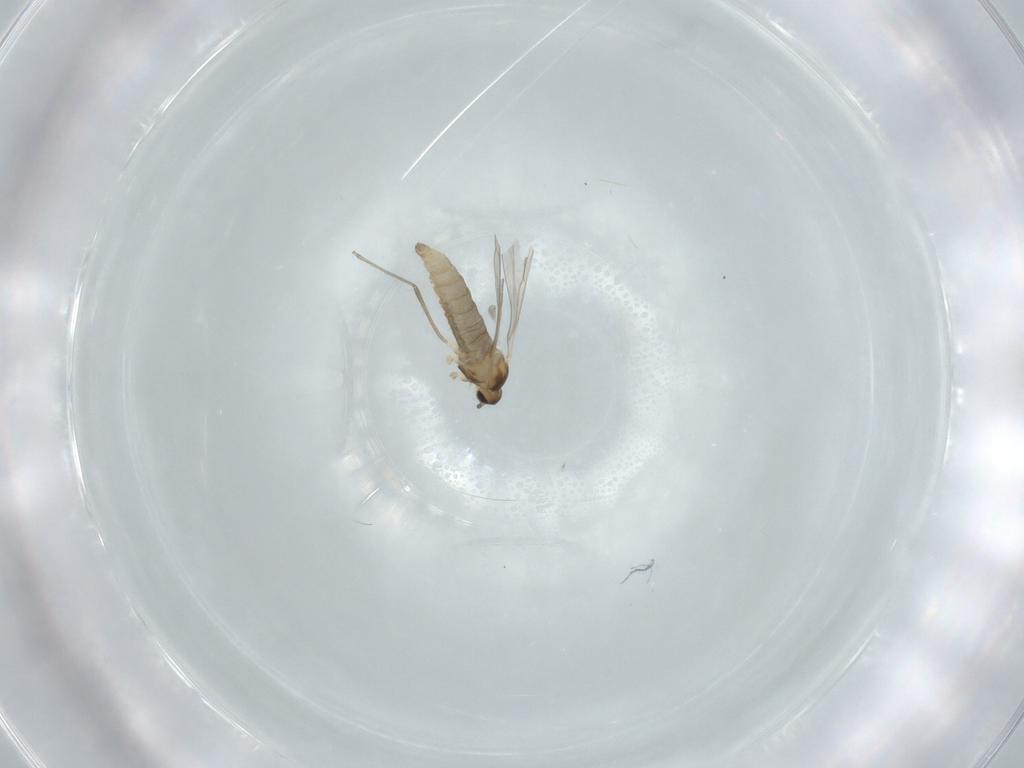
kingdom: Animalia
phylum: Arthropoda
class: Insecta
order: Diptera
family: Cecidomyiidae
